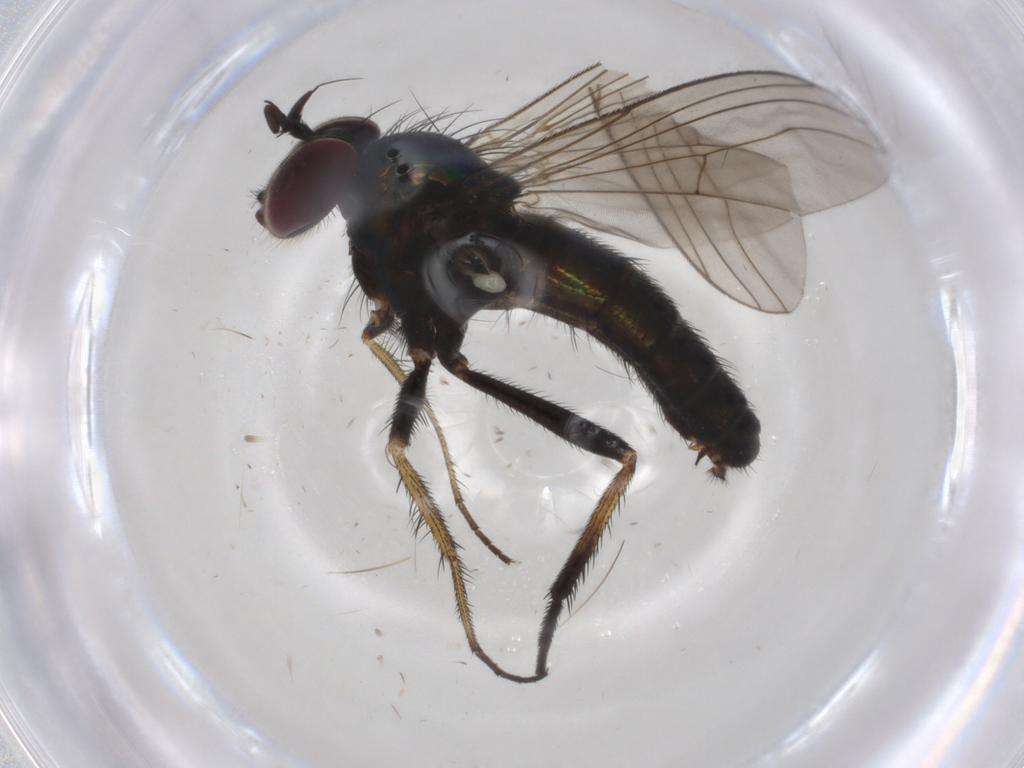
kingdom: Animalia
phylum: Arthropoda
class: Insecta
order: Diptera
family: Dolichopodidae
